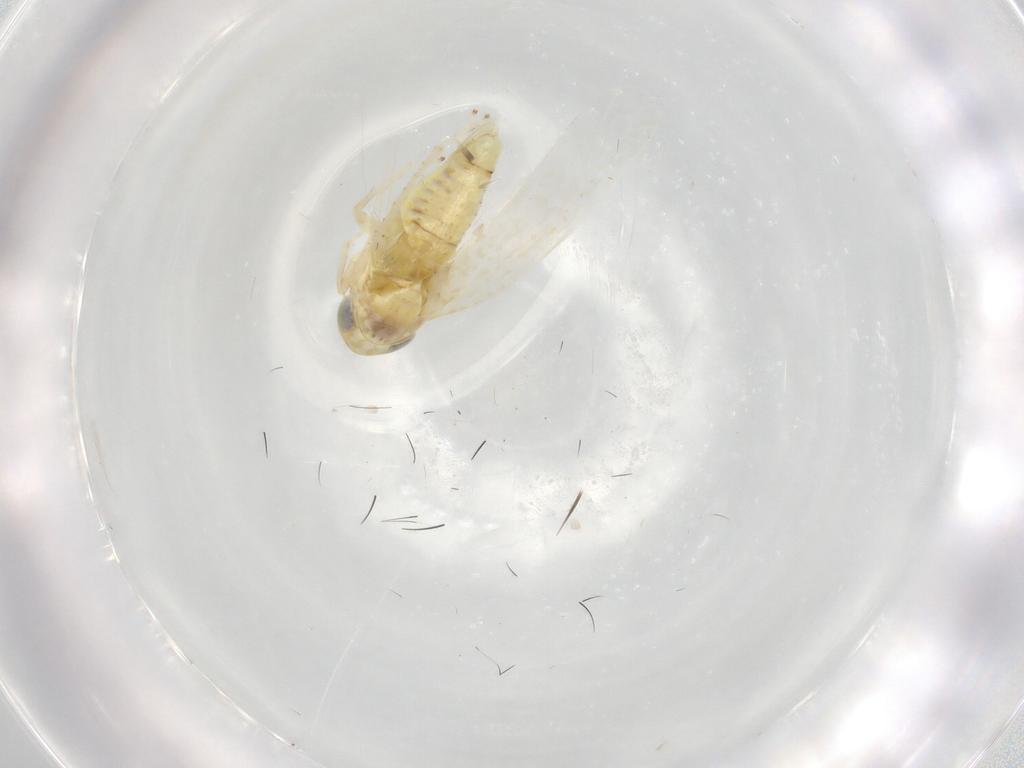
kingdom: Animalia
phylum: Arthropoda
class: Insecta
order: Hemiptera
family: Cicadellidae
